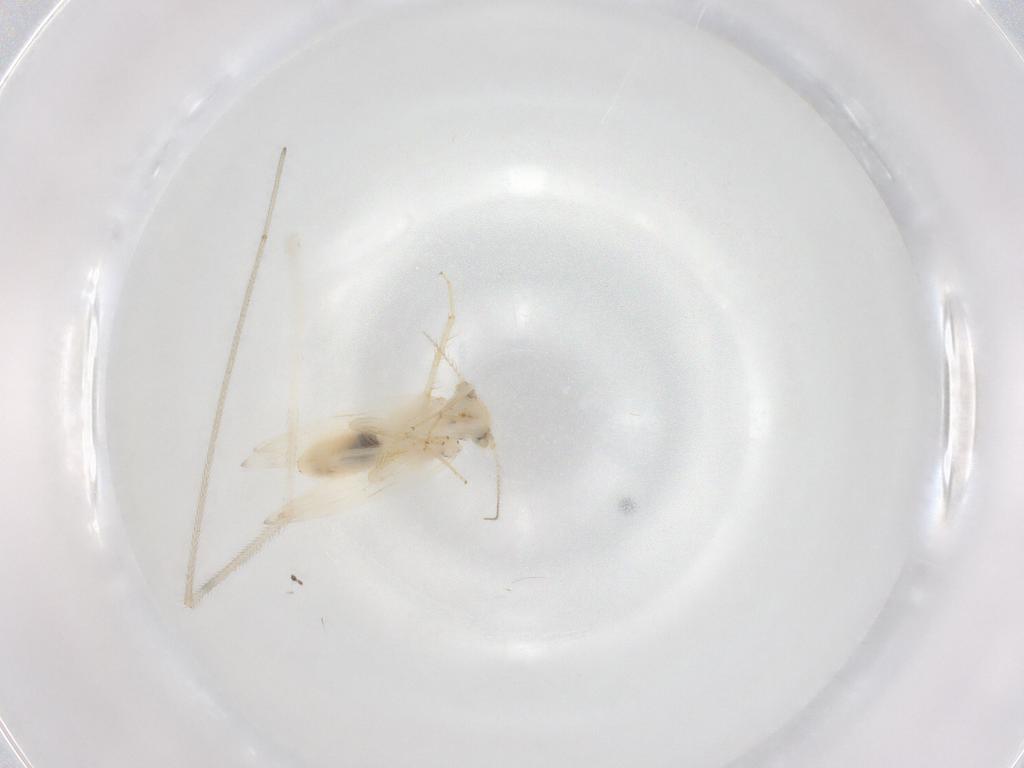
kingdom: Animalia
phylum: Arthropoda
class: Insecta
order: Psocodea
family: Lepidopsocidae
